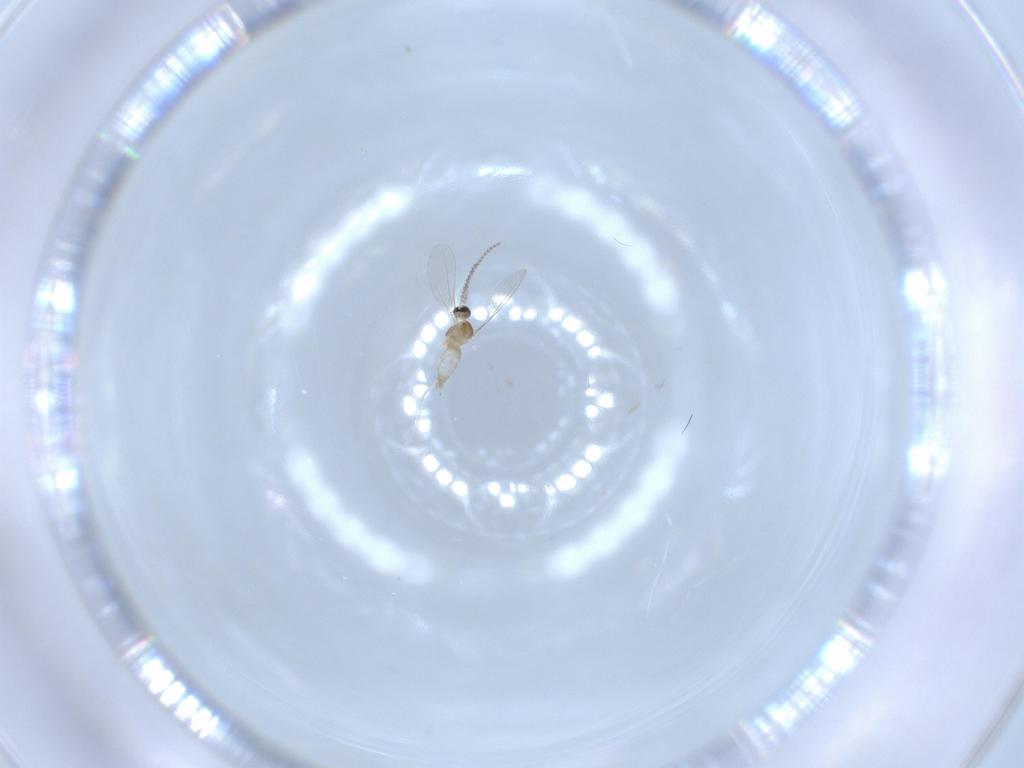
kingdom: Animalia
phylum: Arthropoda
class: Insecta
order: Diptera
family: Cecidomyiidae
